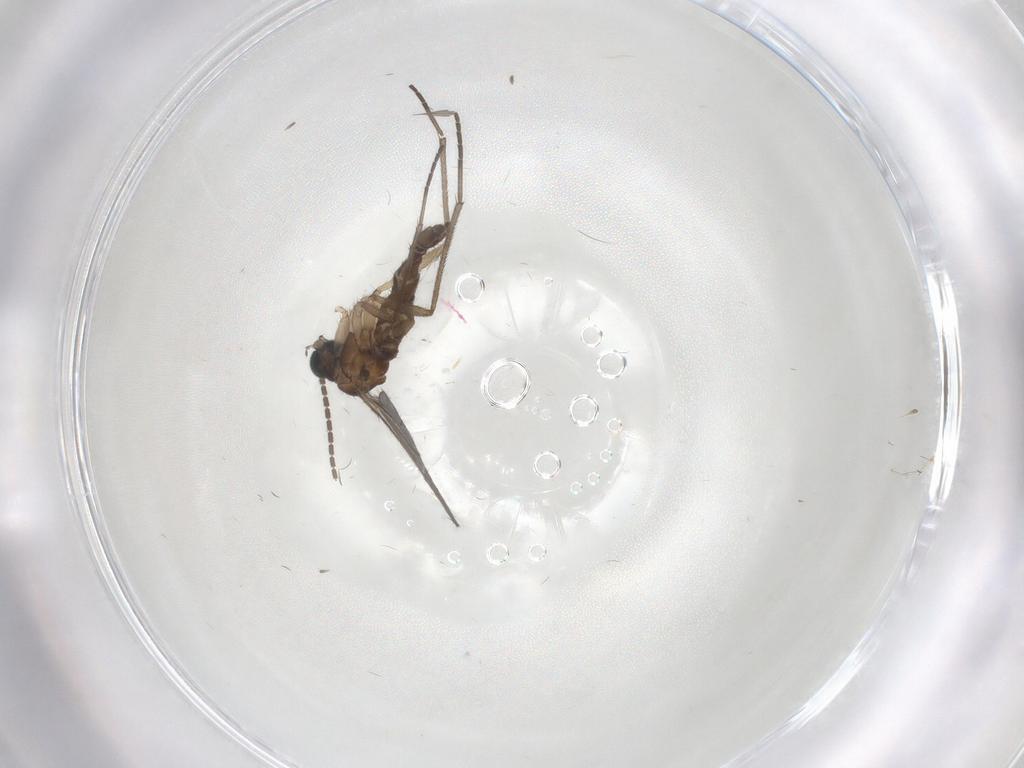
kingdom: Animalia
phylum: Arthropoda
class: Insecta
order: Diptera
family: Sciaridae
